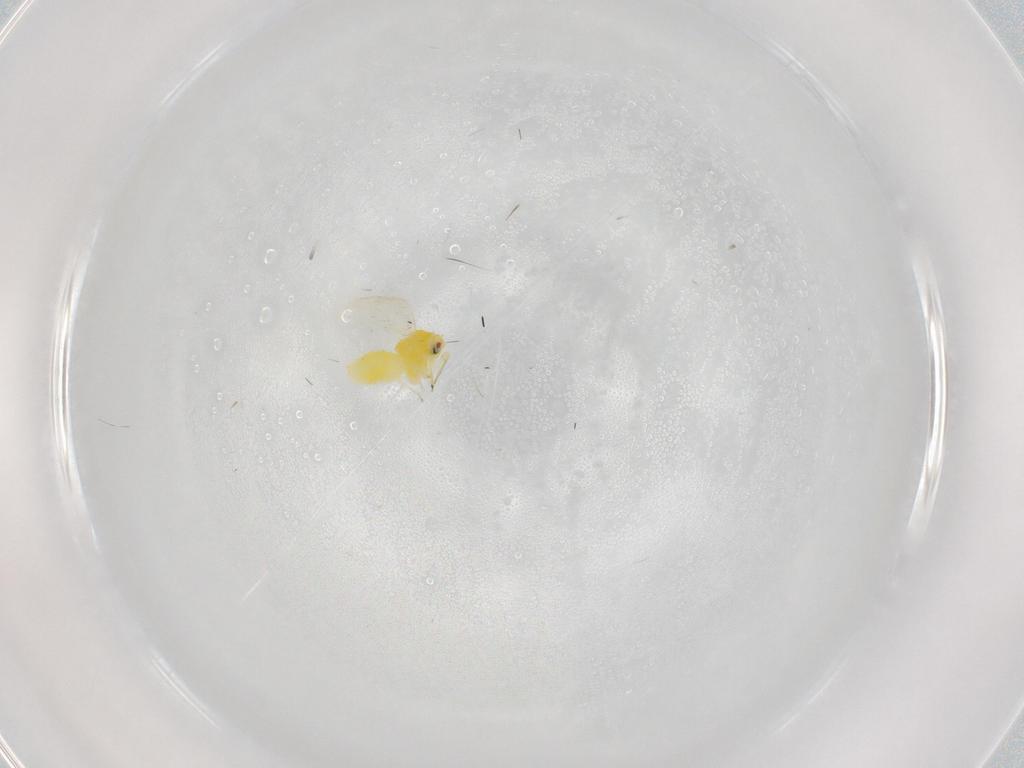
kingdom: Animalia
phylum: Arthropoda
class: Insecta
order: Hemiptera
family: Aleyrodidae
